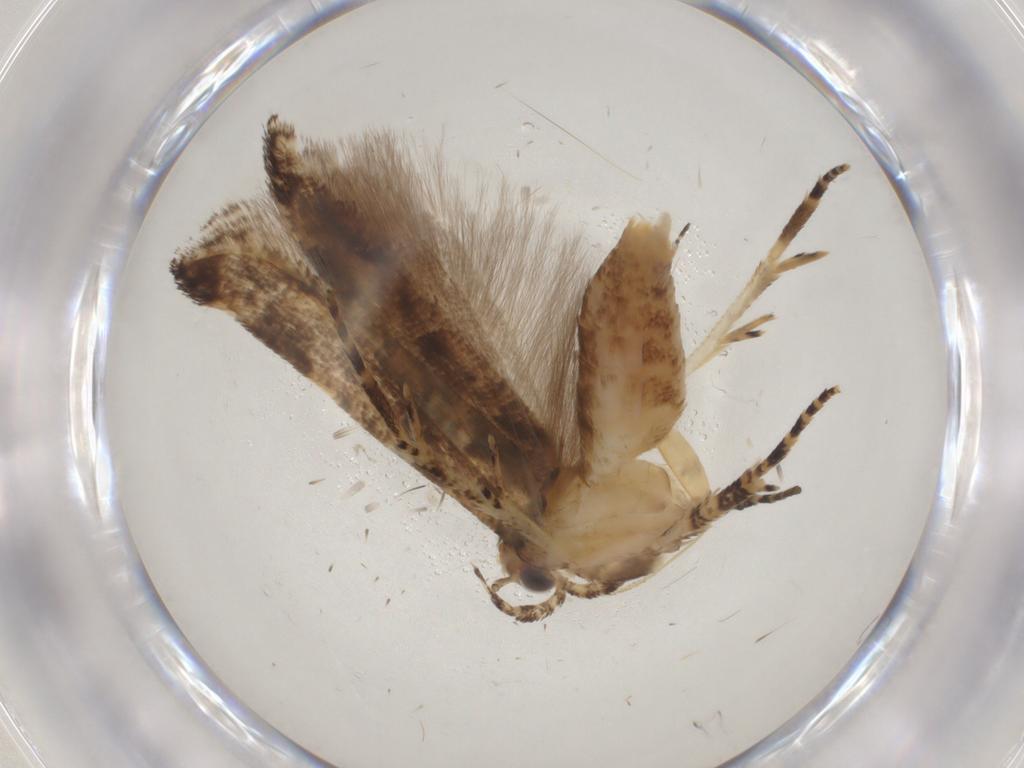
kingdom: Animalia
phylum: Arthropoda
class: Insecta
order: Lepidoptera
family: Gelechiidae
